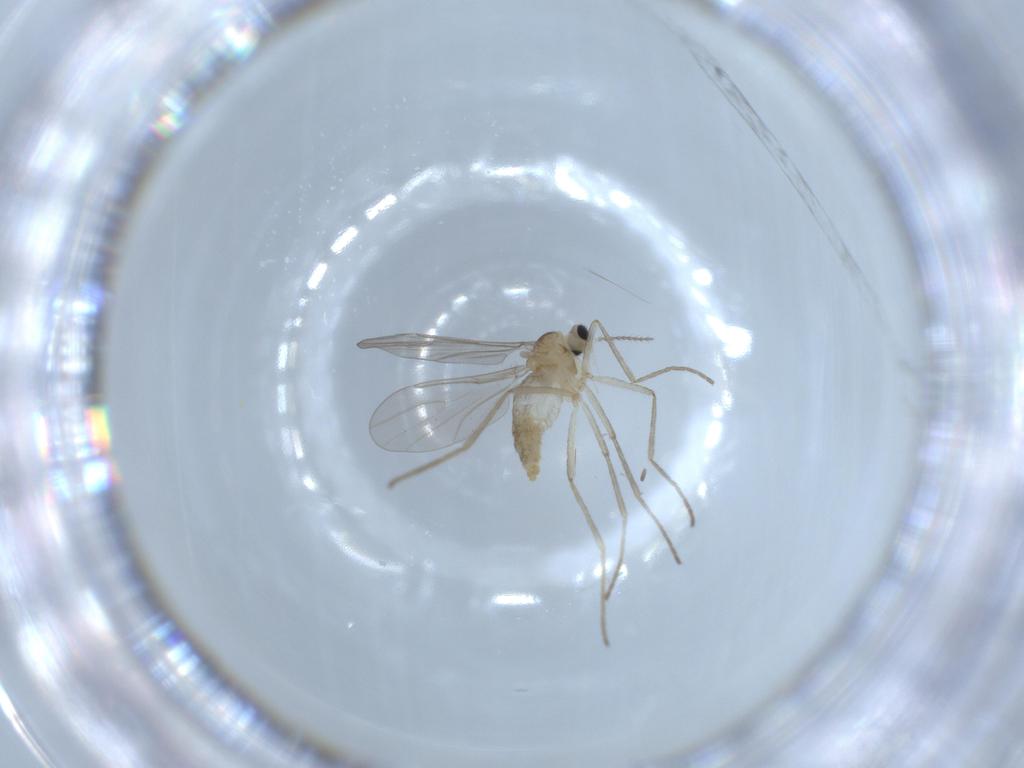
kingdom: Animalia
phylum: Arthropoda
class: Insecta
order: Diptera
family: Cecidomyiidae
